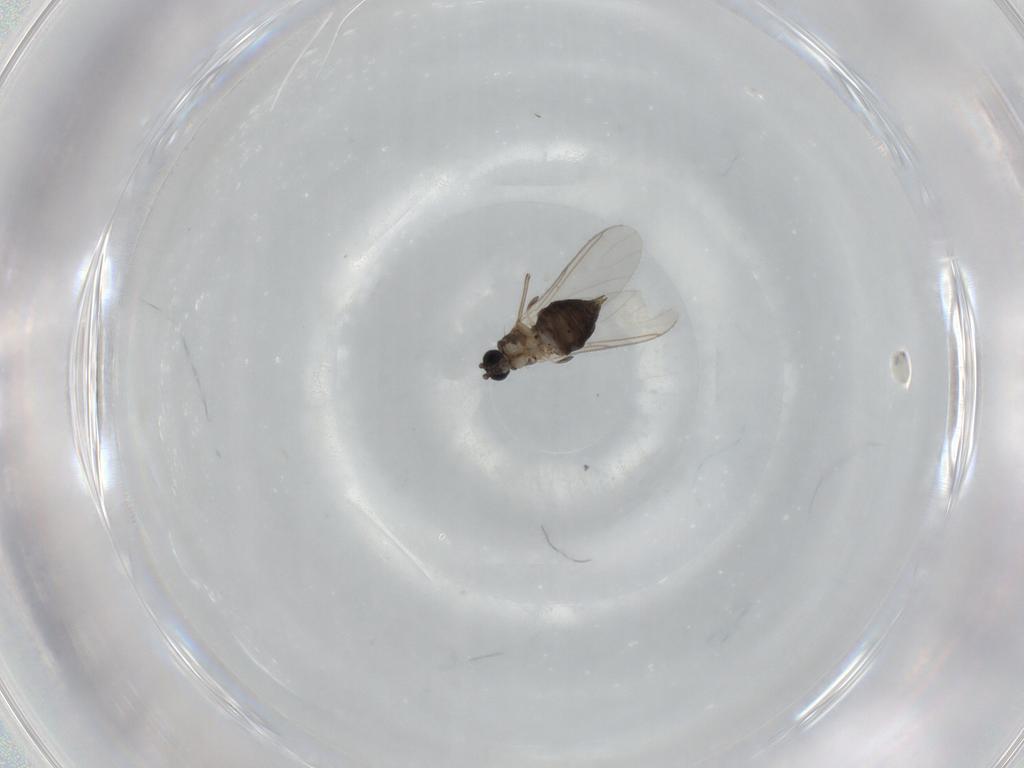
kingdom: Animalia
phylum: Arthropoda
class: Insecta
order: Diptera
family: Sciaridae
